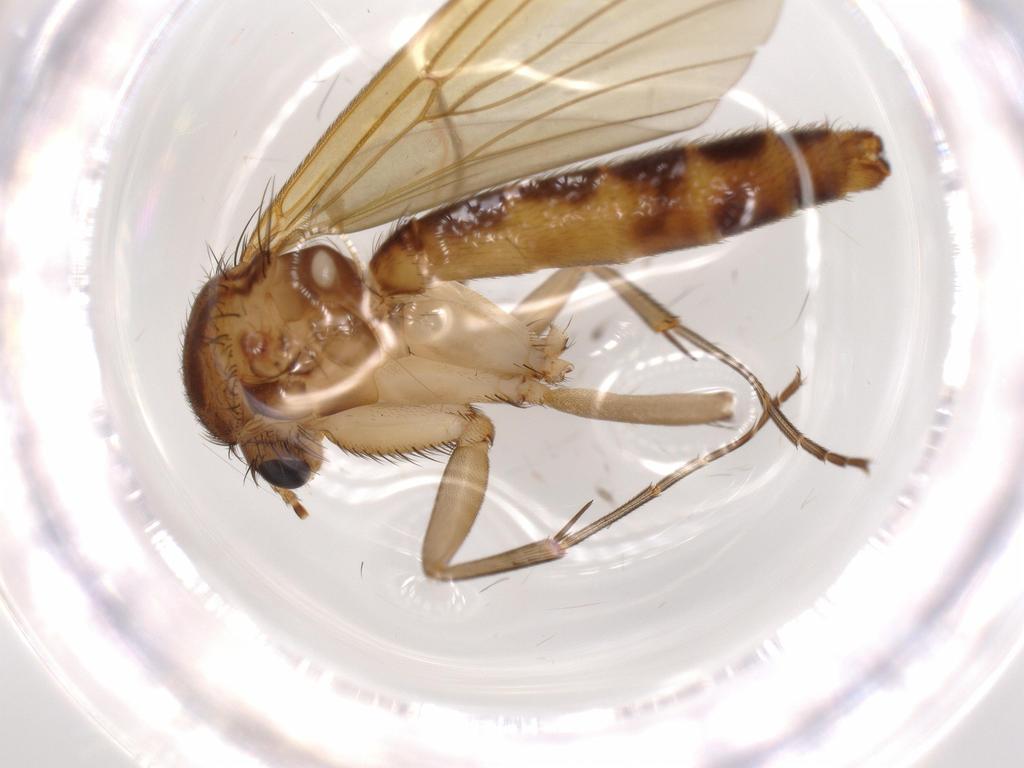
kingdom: Animalia
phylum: Arthropoda
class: Insecta
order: Diptera
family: Mycetophilidae
